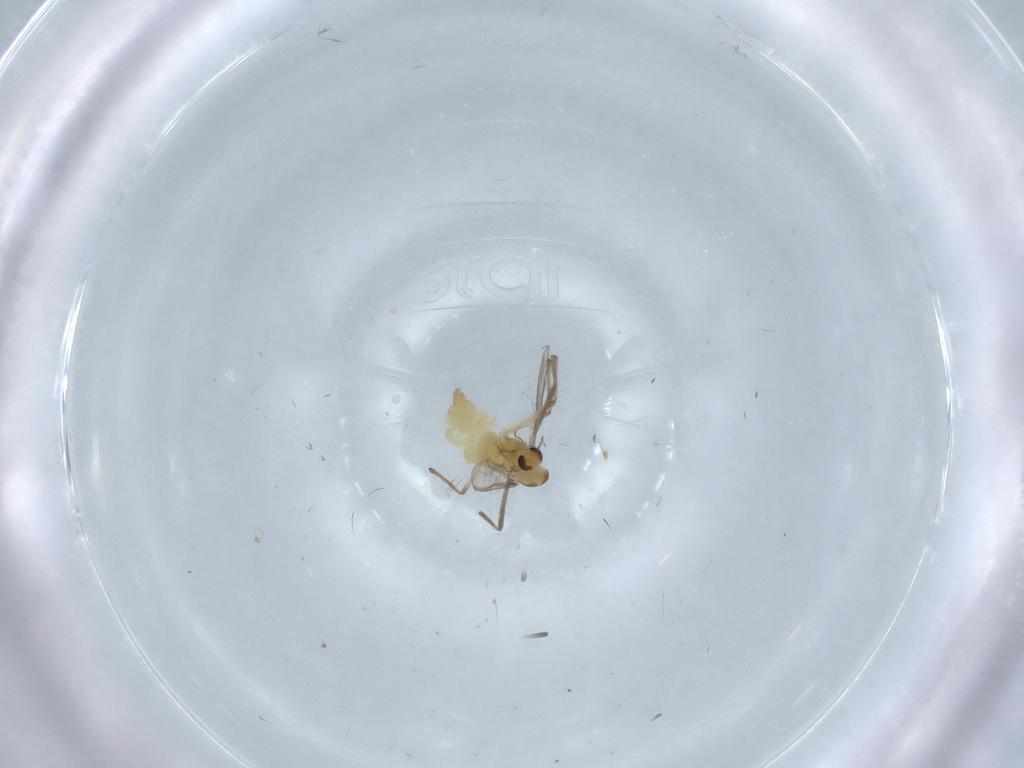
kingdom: Animalia
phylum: Arthropoda
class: Insecta
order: Diptera
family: Chironomidae
